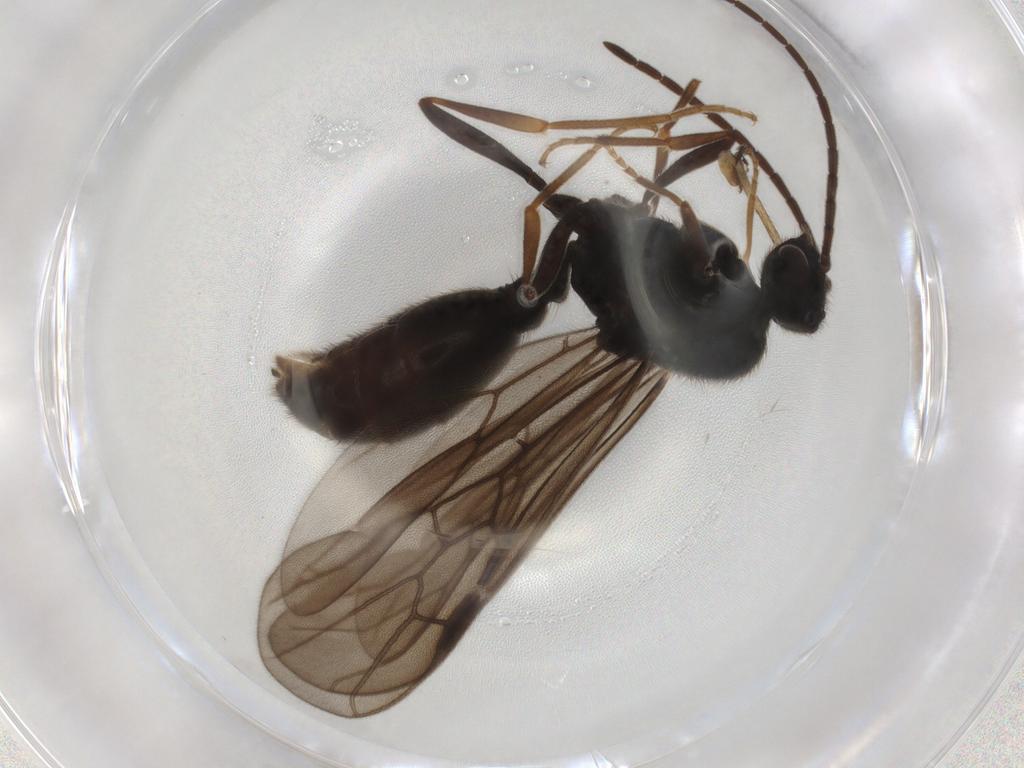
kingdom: Animalia
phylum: Arthropoda
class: Insecta
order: Hymenoptera
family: Formicidae
